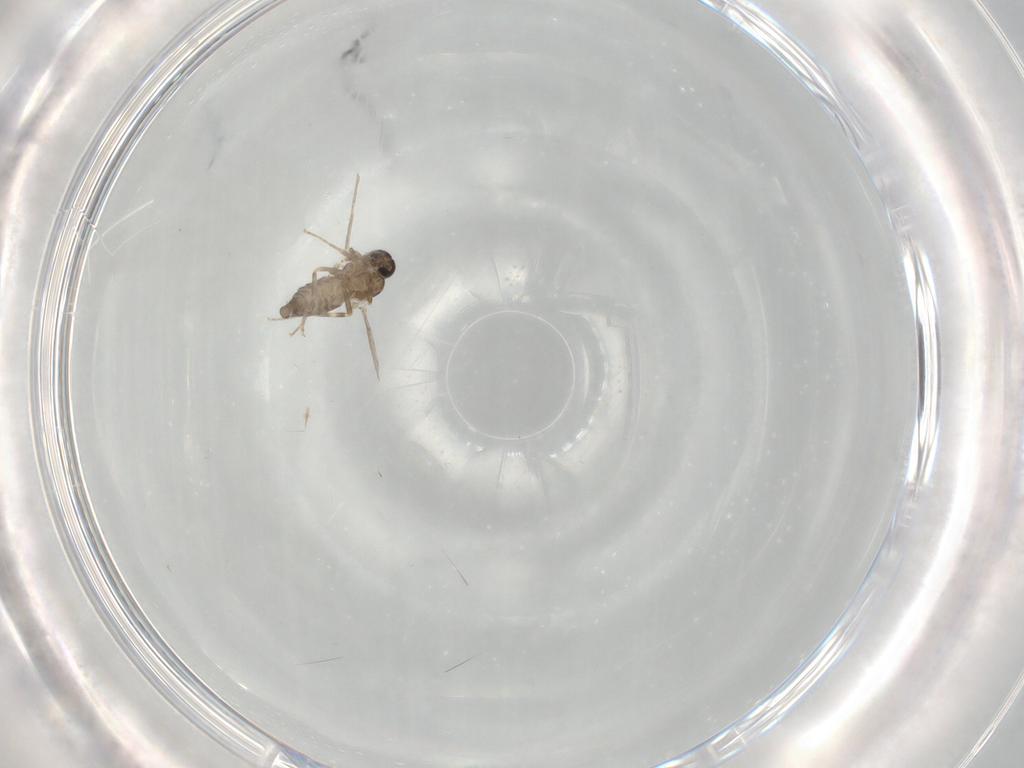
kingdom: Animalia
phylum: Arthropoda
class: Insecta
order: Diptera
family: Ceratopogonidae
